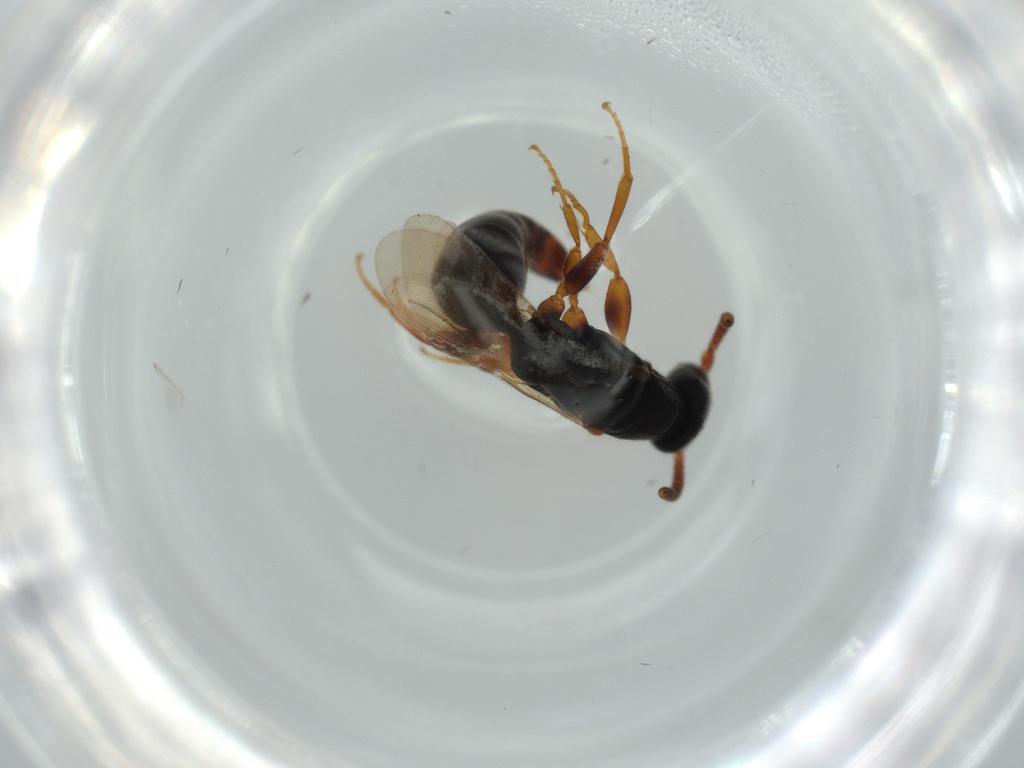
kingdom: Animalia
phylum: Arthropoda
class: Insecta
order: Hymenoptera
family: Bethylidae
